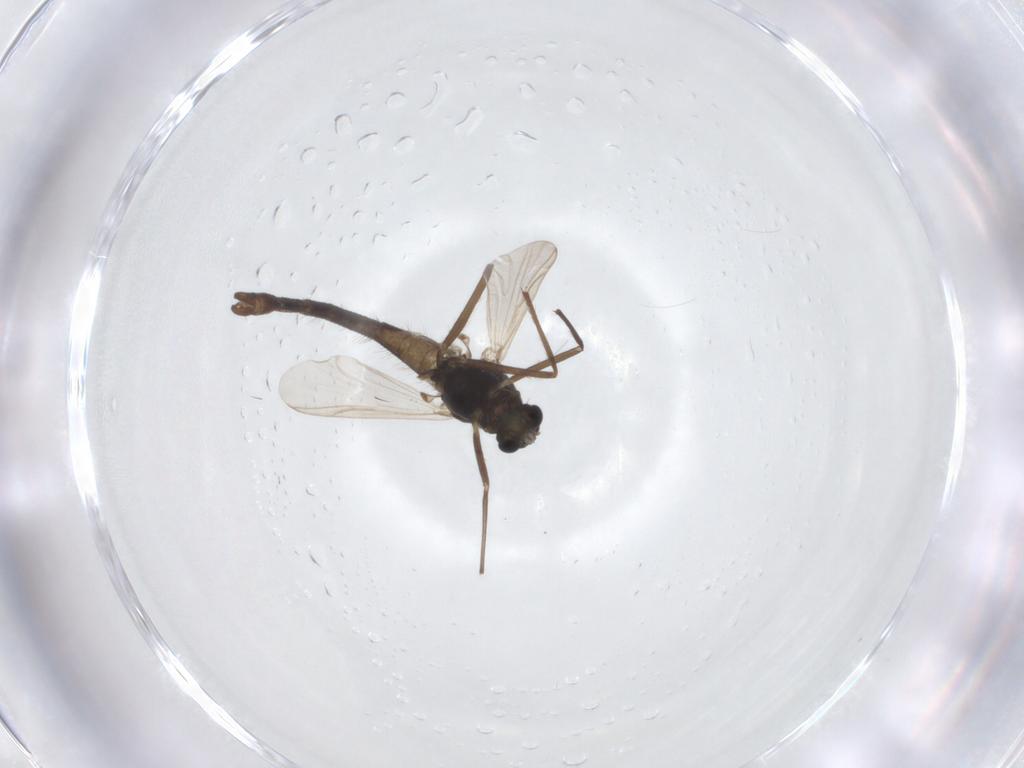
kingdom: Animalia
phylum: Arthropoda
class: Insecta
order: Diptera
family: Chironomidae
